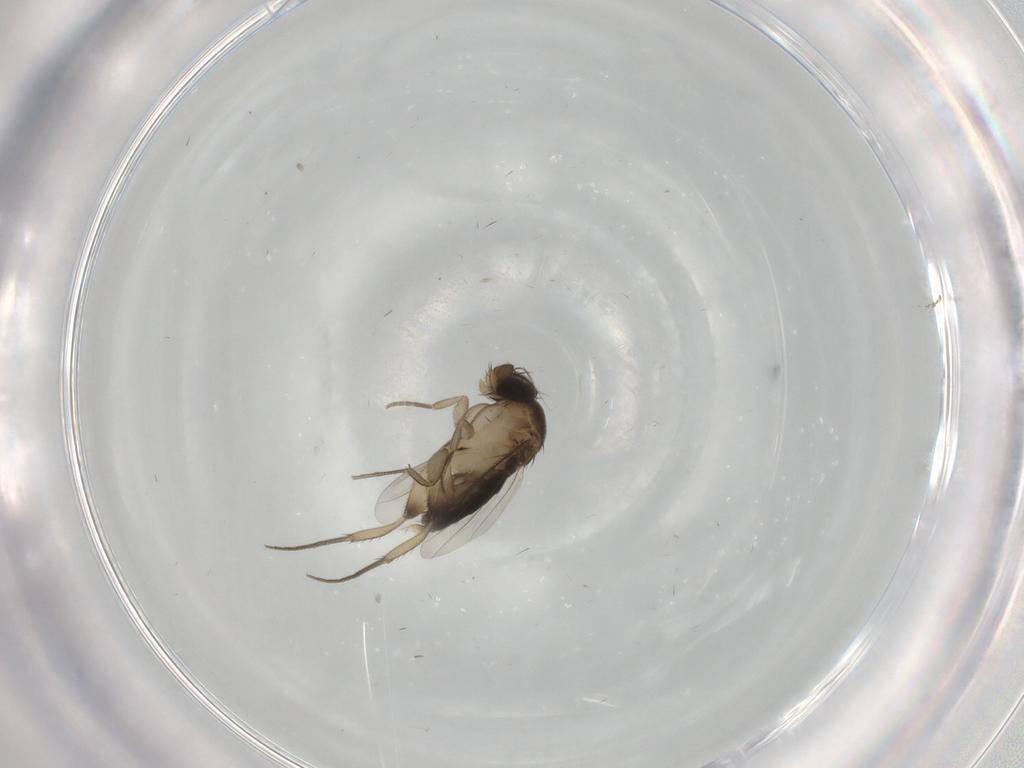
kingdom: Animalia
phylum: Arthropoda
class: Insecta
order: Diptera
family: Phoridae
